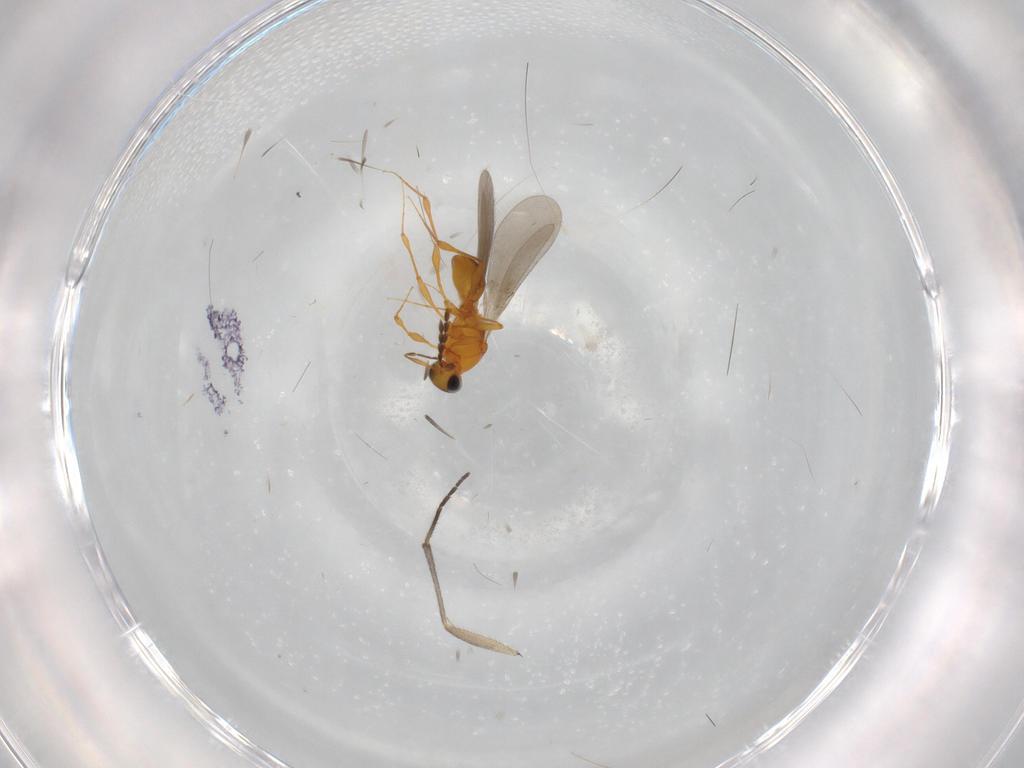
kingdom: Animalia
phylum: Arthropoda
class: Insecta
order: Hymenoptera
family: Platygastridae
